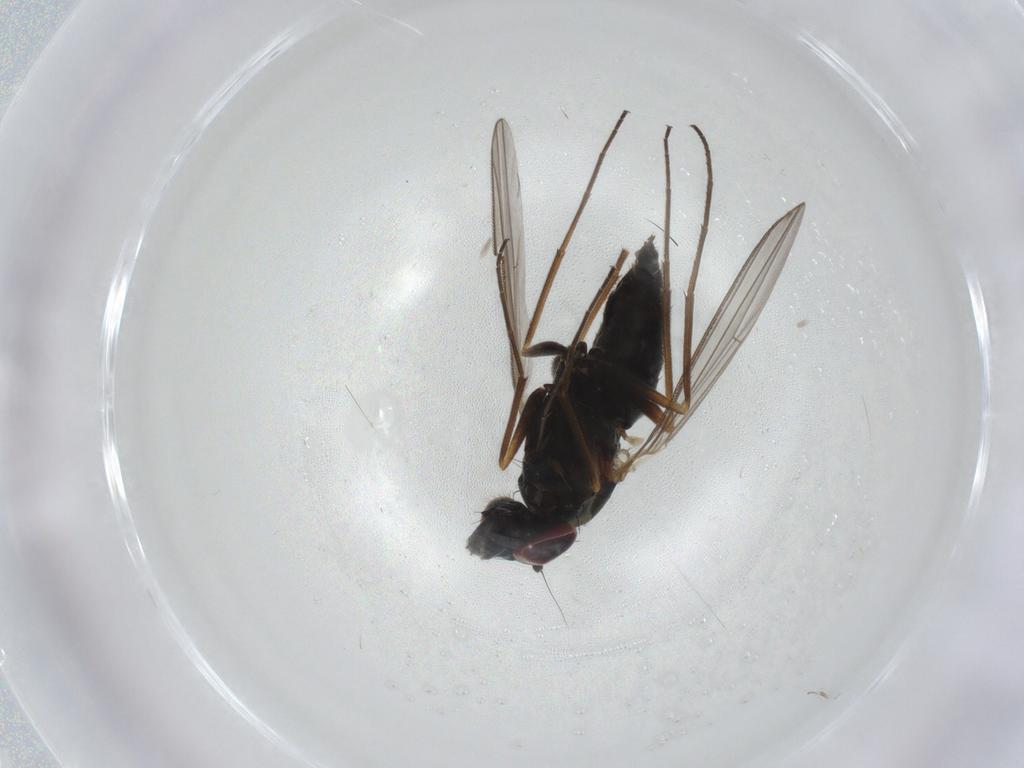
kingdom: Animalia
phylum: Arthropoda
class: Insecta
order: Diptera
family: Dolichopodidae
